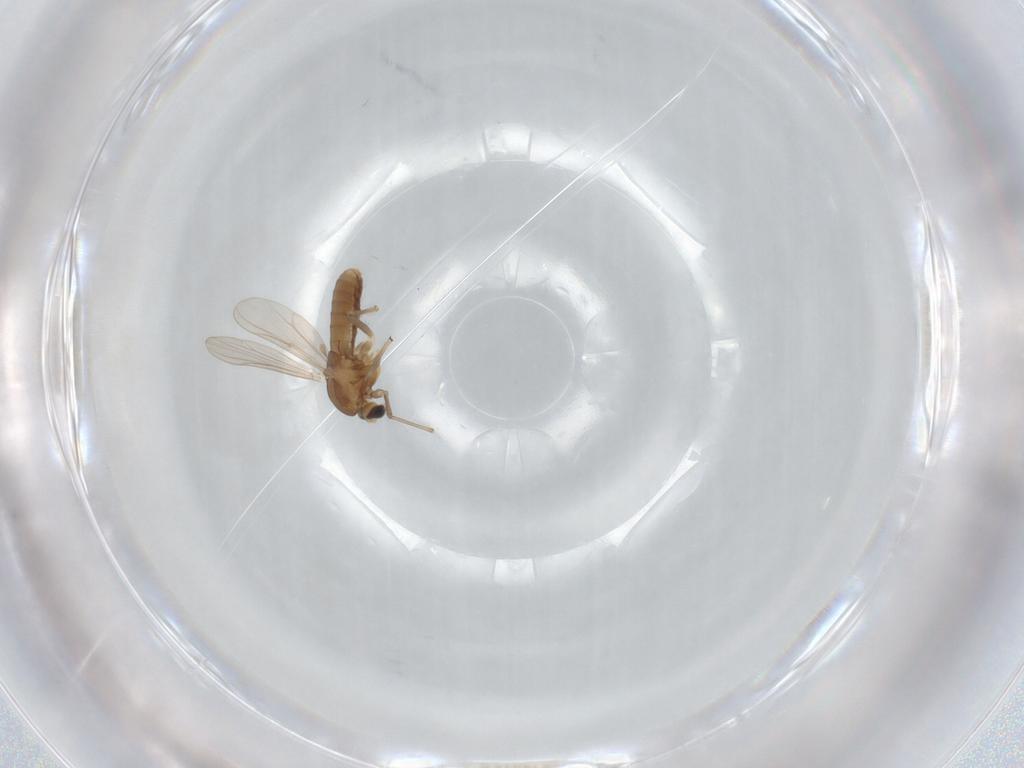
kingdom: Animalia
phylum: Arthropoda
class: Insecta
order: Diptera
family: Chironomidae
